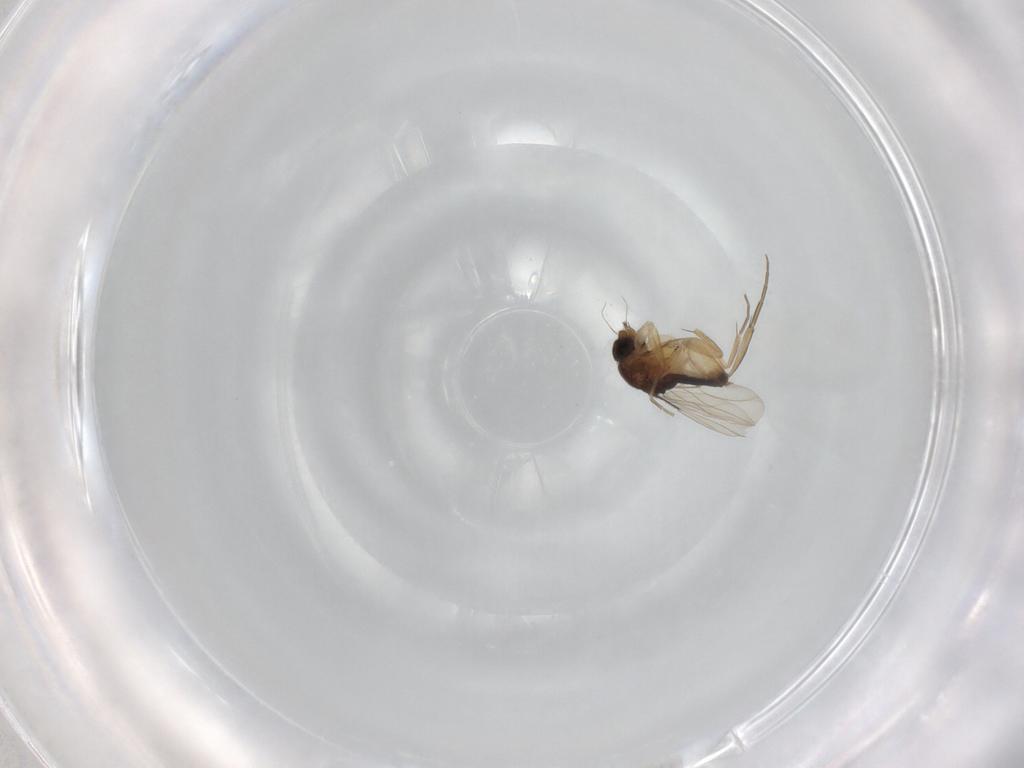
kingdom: Animalia
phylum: Arthropoda
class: Insecta
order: Diptera
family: Glossinidae
